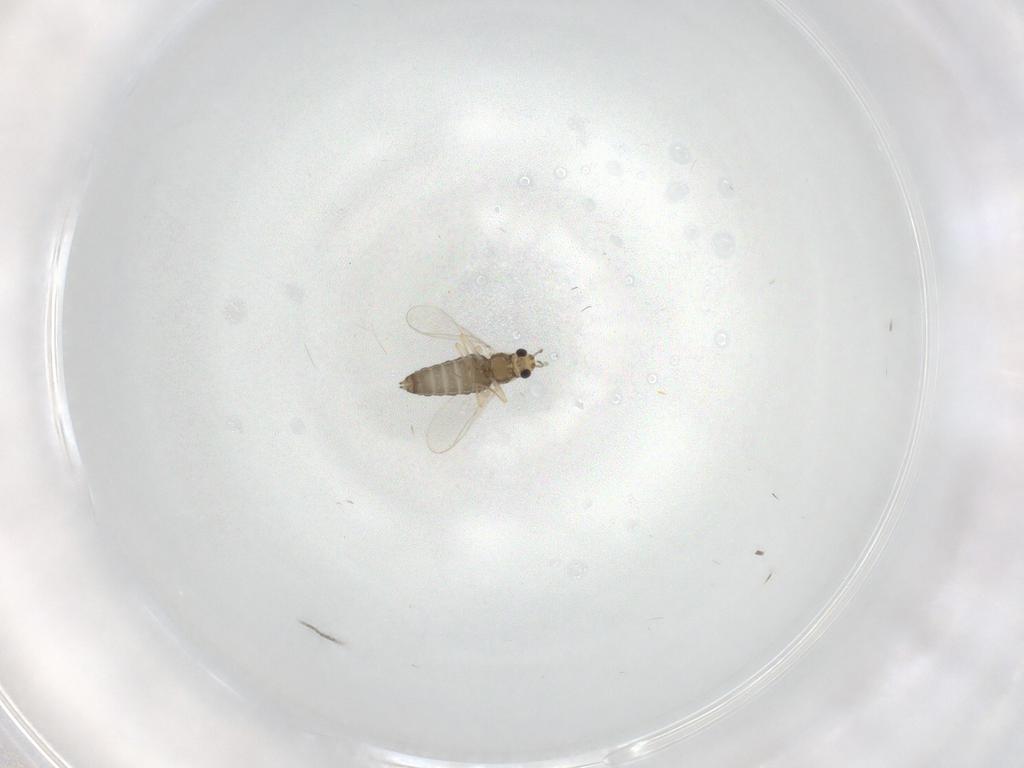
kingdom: Animalia
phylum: Arthropoda
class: Insecta
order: Diptera
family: Chironomidae
